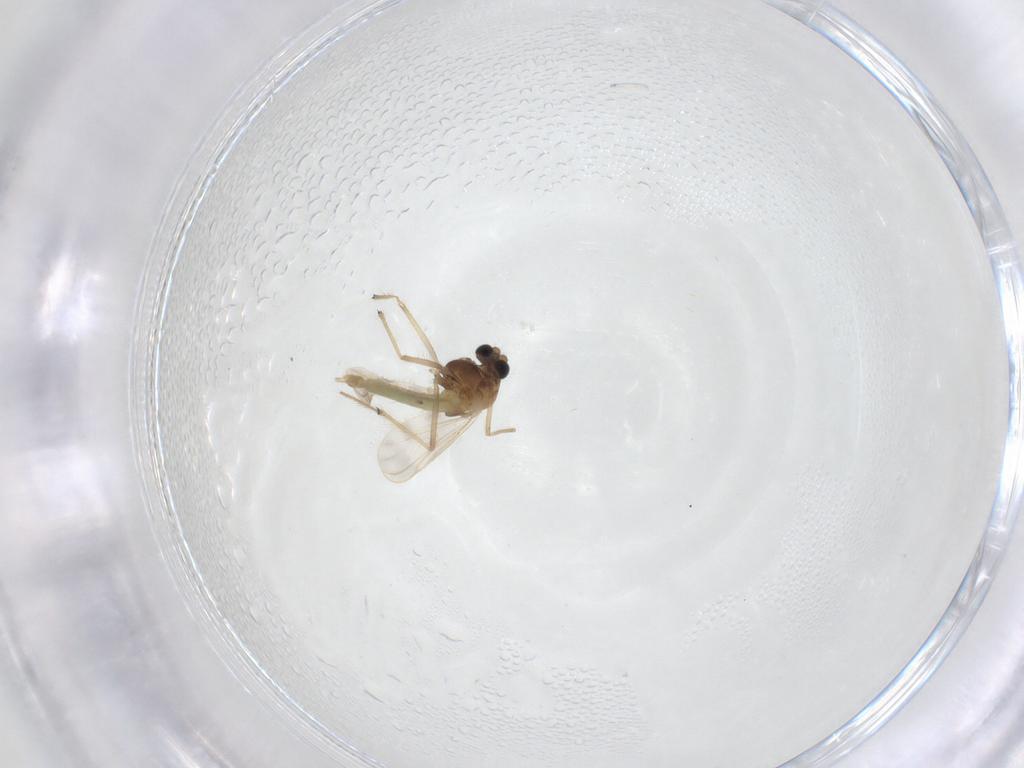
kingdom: Animalia
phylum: Arthropoda
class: Insecta
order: Diptera
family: Chironomidae
